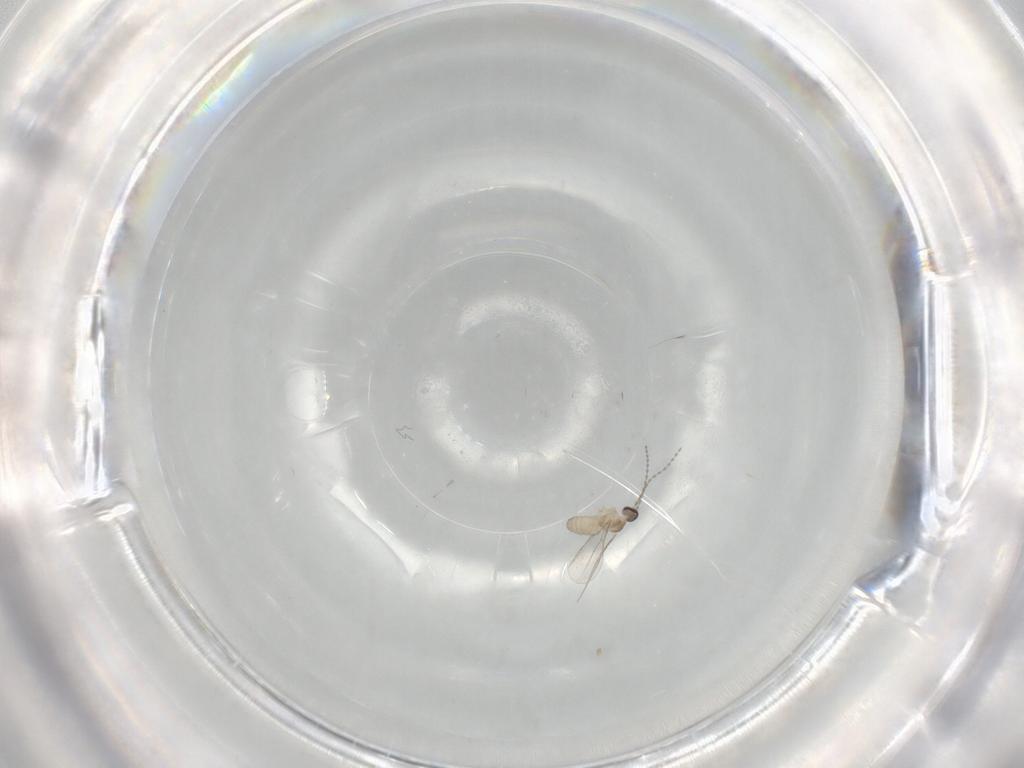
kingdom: Animalia
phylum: Arthropoda
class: Insecta
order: Diptera
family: Cecidomyiidae
